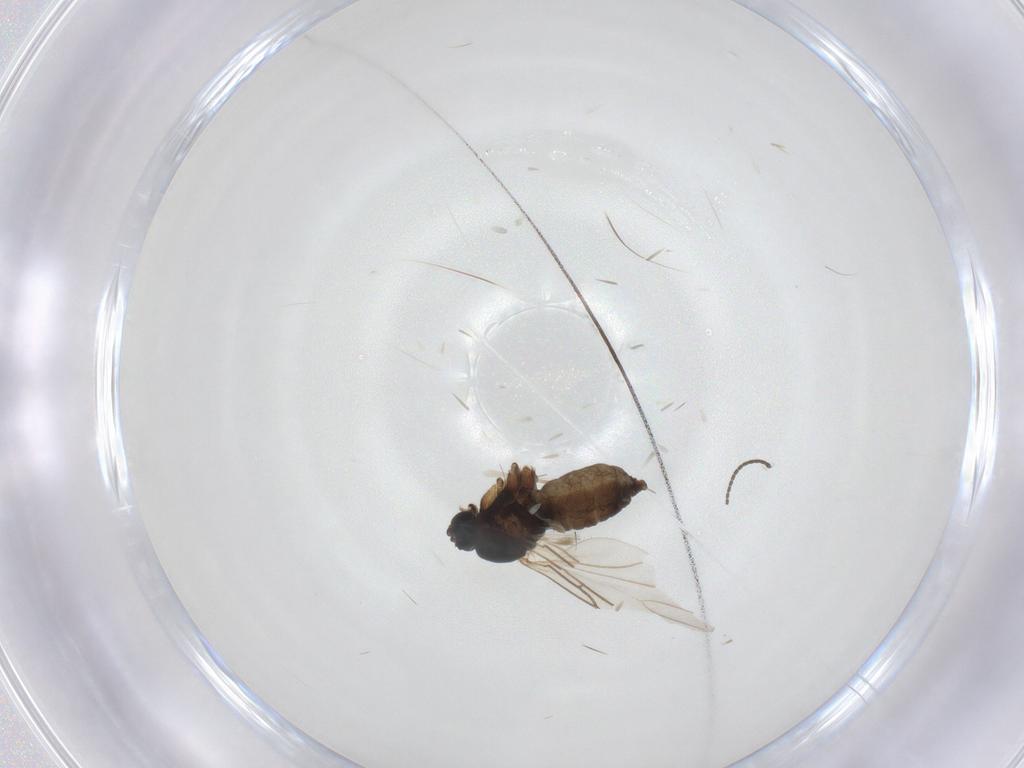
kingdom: Animalia
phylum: Arthropoda
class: Insecta
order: Diptera
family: Sciaridae
